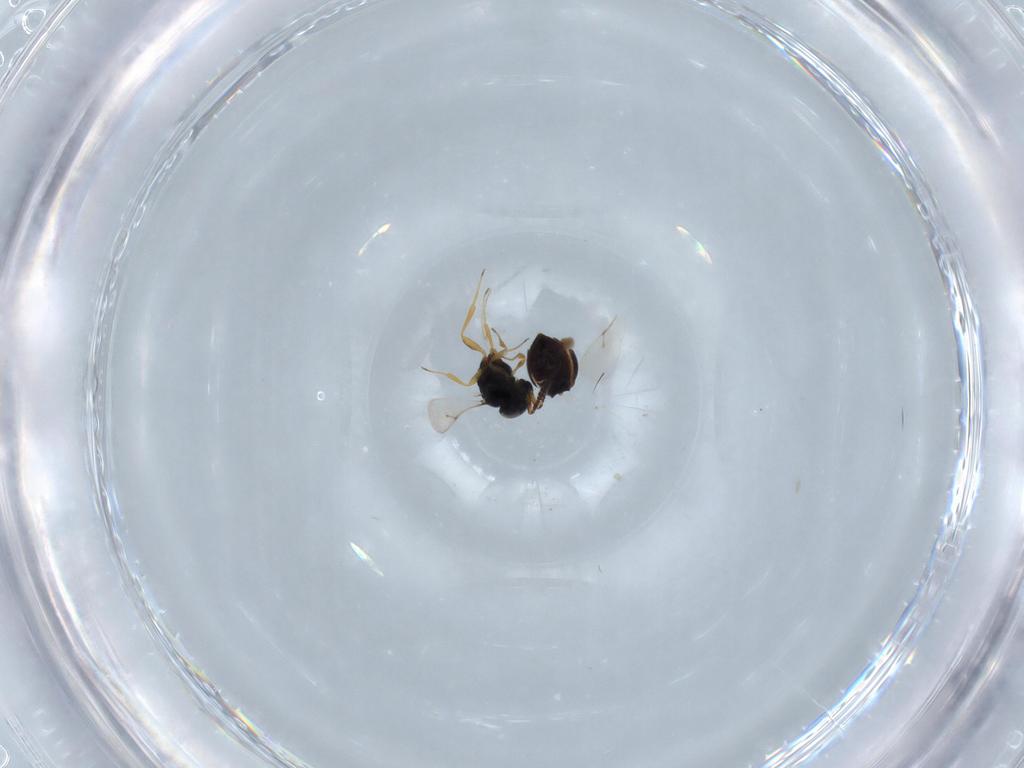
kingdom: Animalia
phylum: Arthropoda
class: Insecta
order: Hymenoptera
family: Scelionidae
